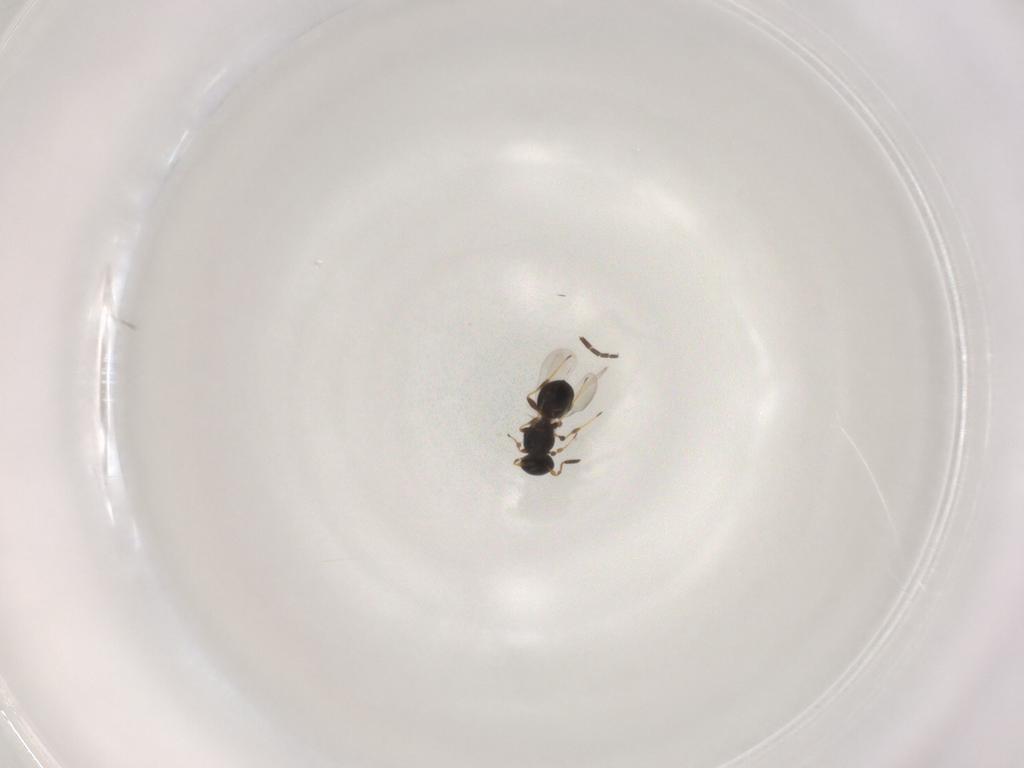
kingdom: Animalia
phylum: Arthropoda
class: Insecta
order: Hymenoptera
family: Platygastridae
